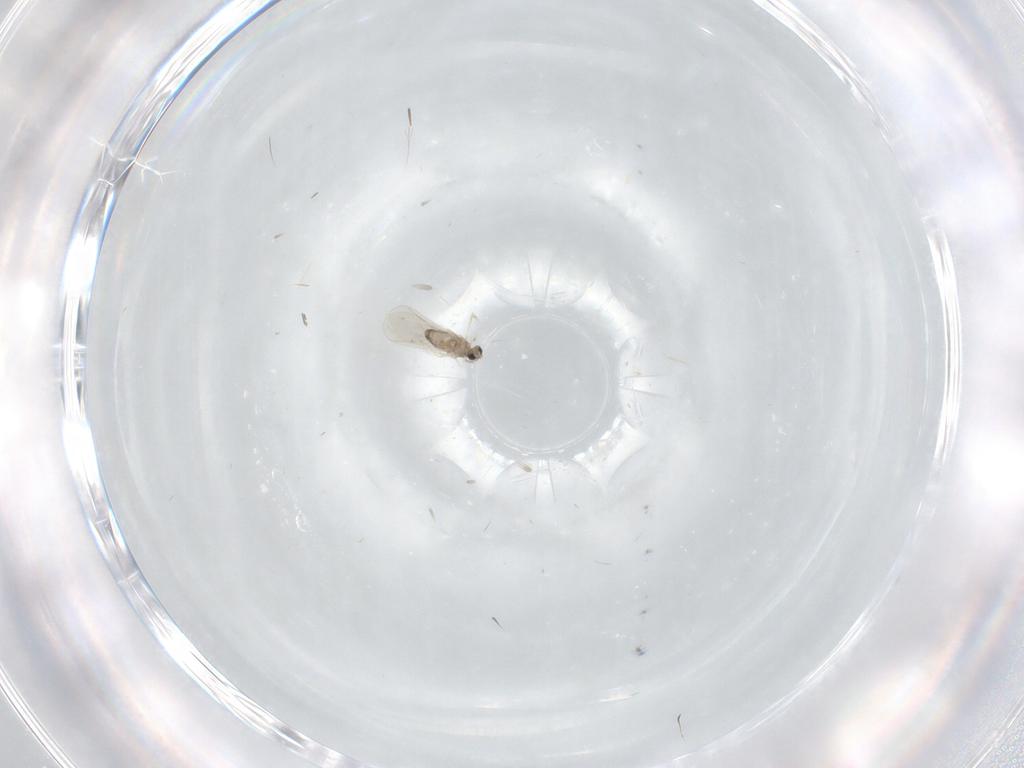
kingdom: Animalia
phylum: Arthropoda
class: Insecta
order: Diptera
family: Cecidomyiidae
